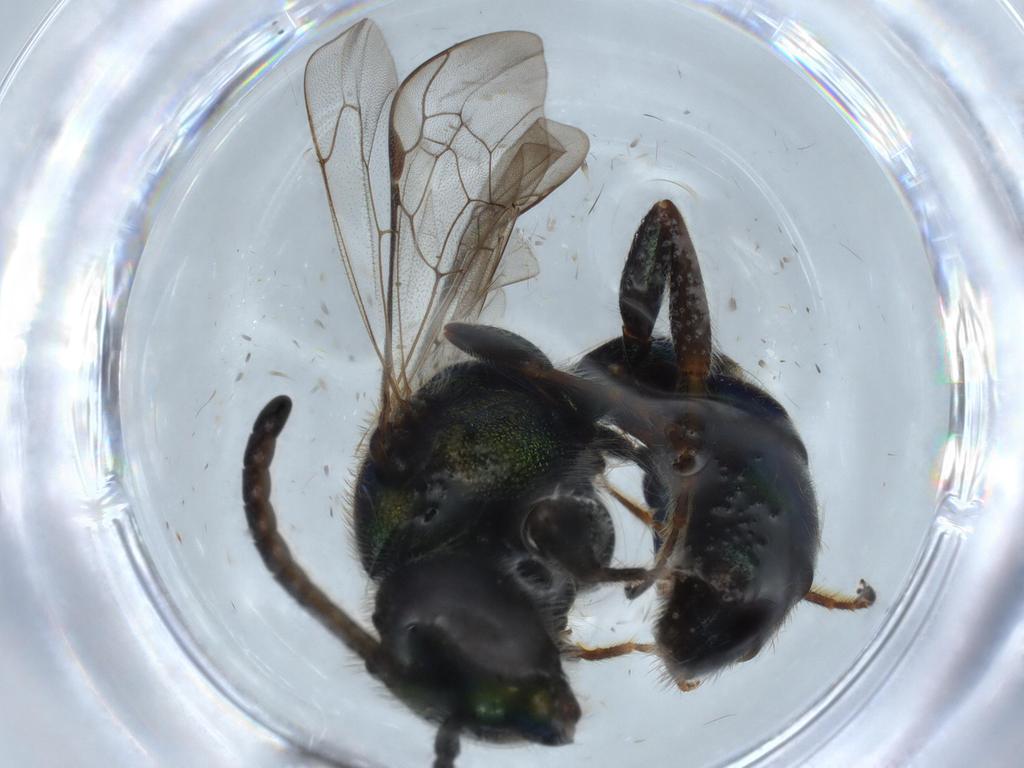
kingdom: Animalia
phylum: Arthropoda
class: Insecta
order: Hymenoptera
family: Halictidae
